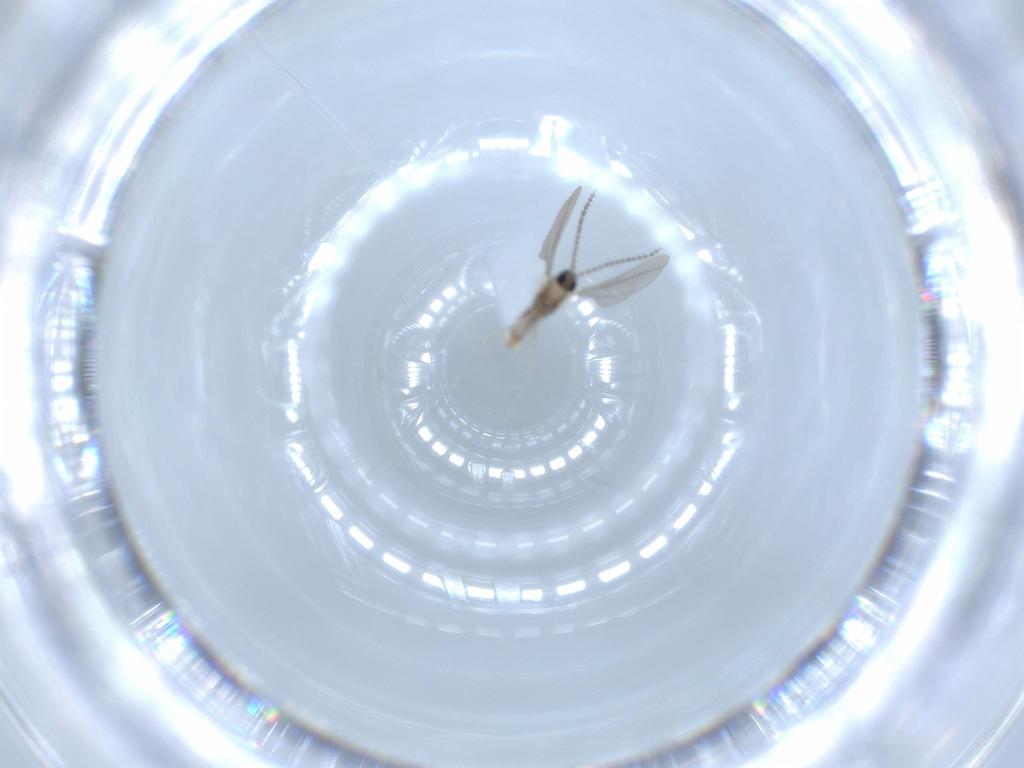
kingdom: Animalia
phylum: Arthropoda
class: Insecta
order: Diptera
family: Cecidomyiidae
